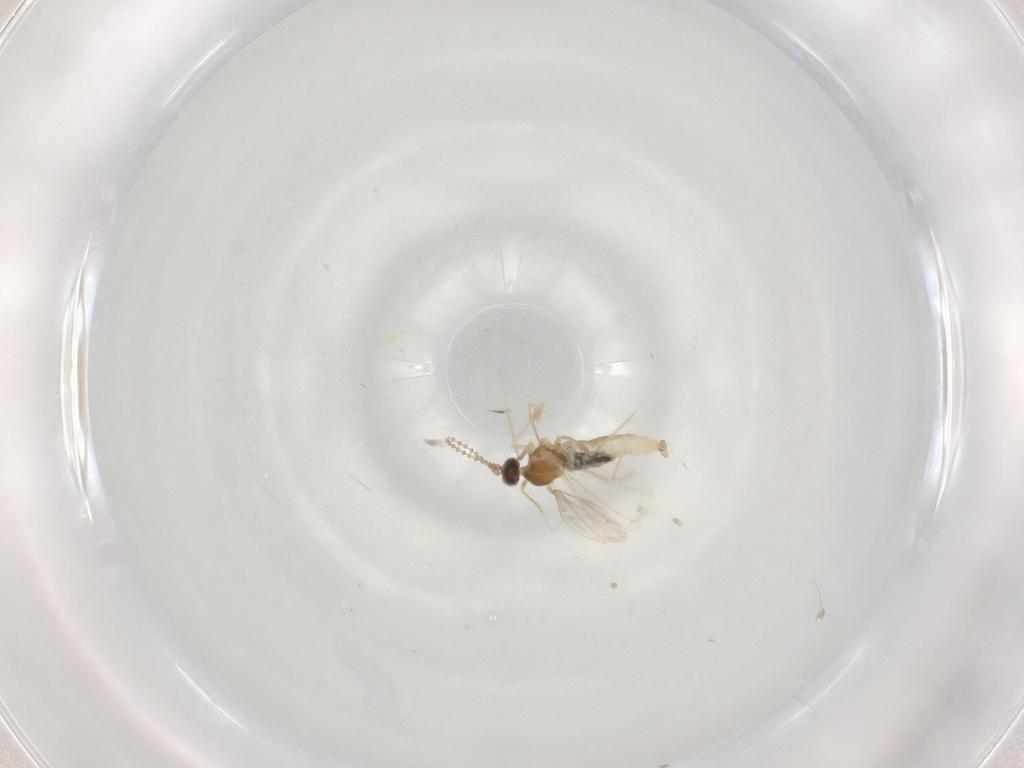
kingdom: Animalia
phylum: Arthropoda
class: Insecta
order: Diptera
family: Cecidomyiidae
